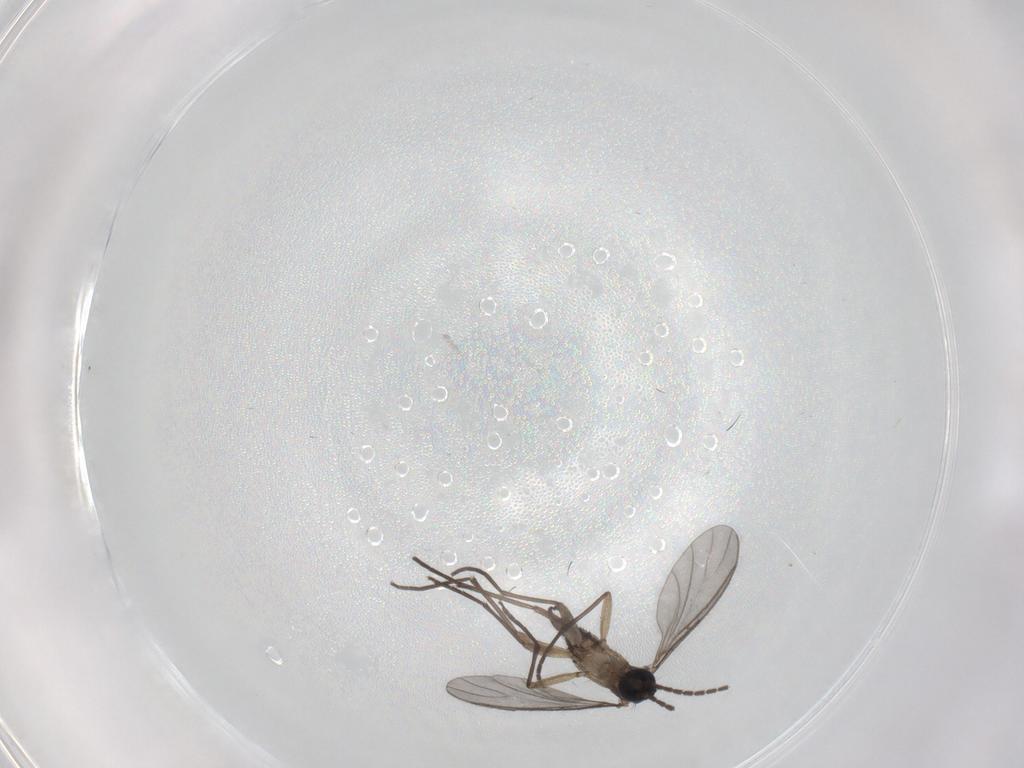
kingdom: Animalia
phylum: Arthropoda
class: Insecta
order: Diptera
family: Sciaridae
